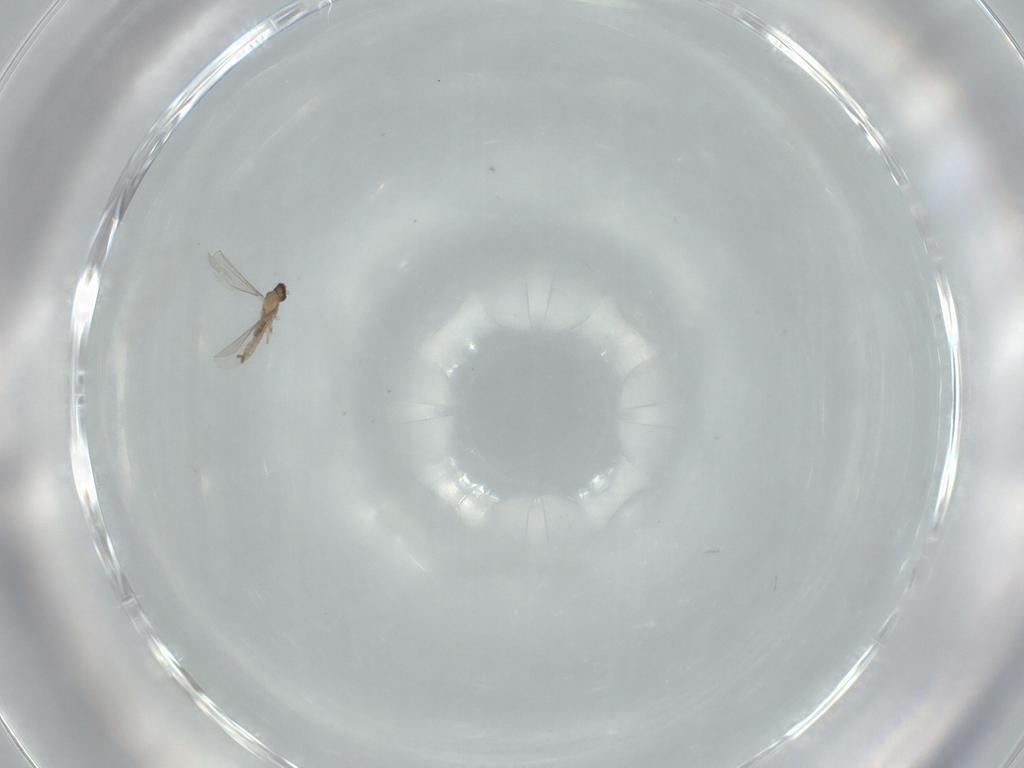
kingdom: Animalia
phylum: Arthropoda
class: Insecta
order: Diptera
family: Cecidomyiidae
